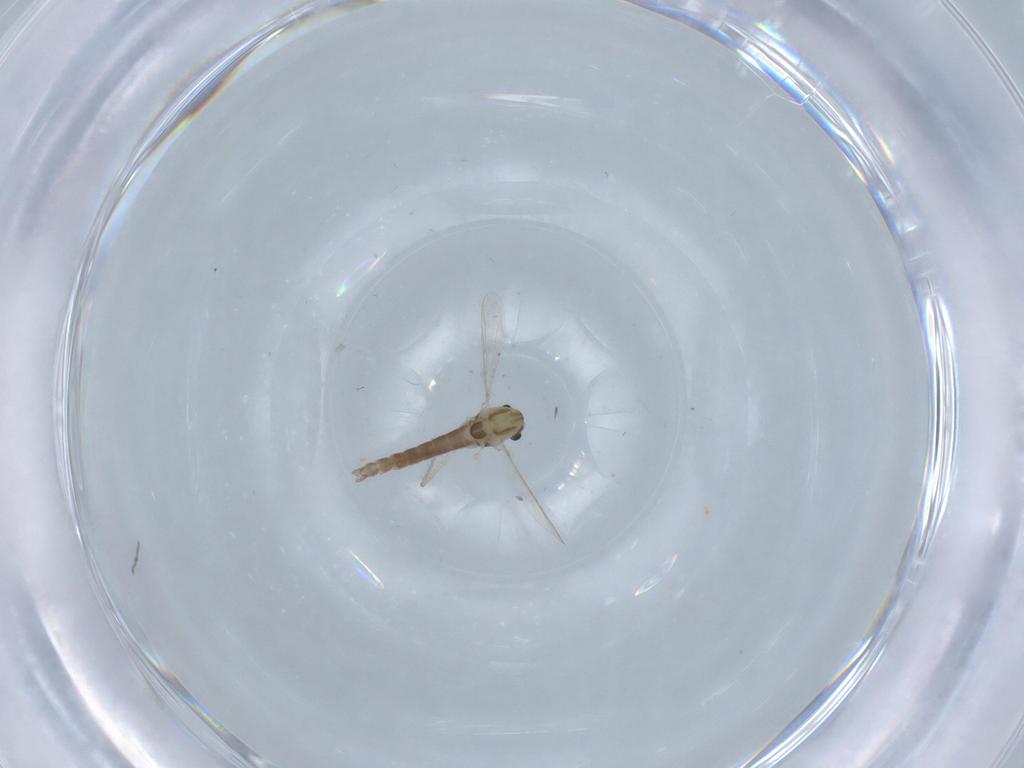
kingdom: Animalia
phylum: Arthropoda
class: Insecta
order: Diptera
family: Chironomidae
